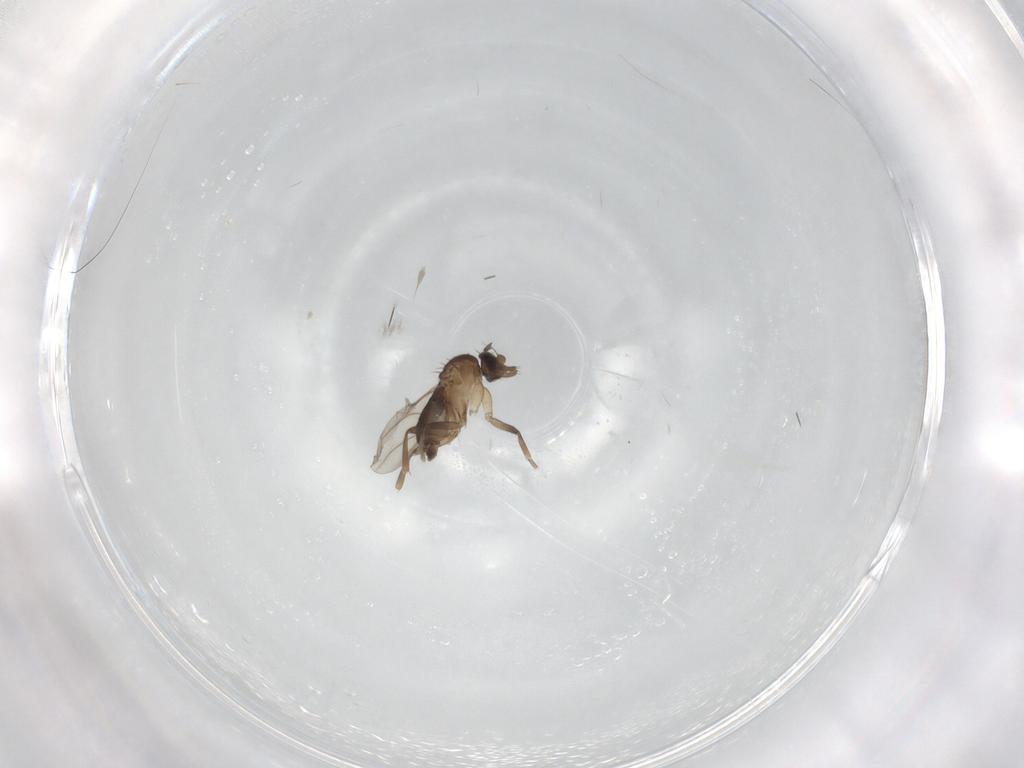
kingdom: Animalia
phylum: Arthropoda
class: Insecta
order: Diptera
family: Phoridae
